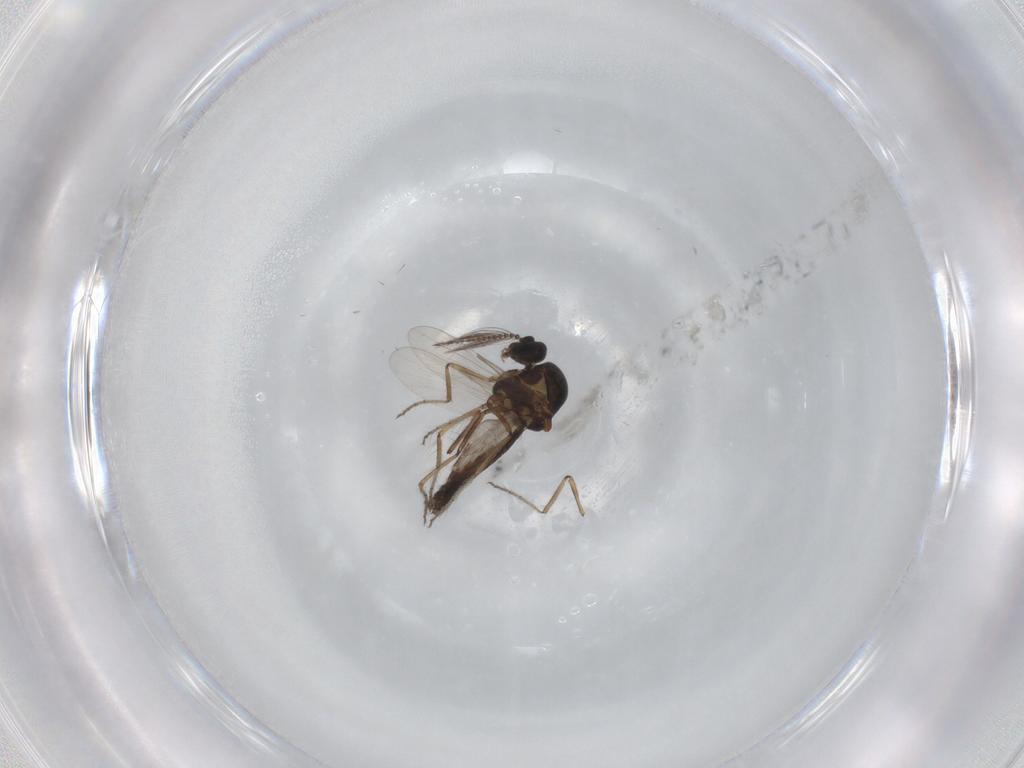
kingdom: Animalia
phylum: Arthropoda
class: Insecta
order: Diptera
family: Ceratopogonidae
